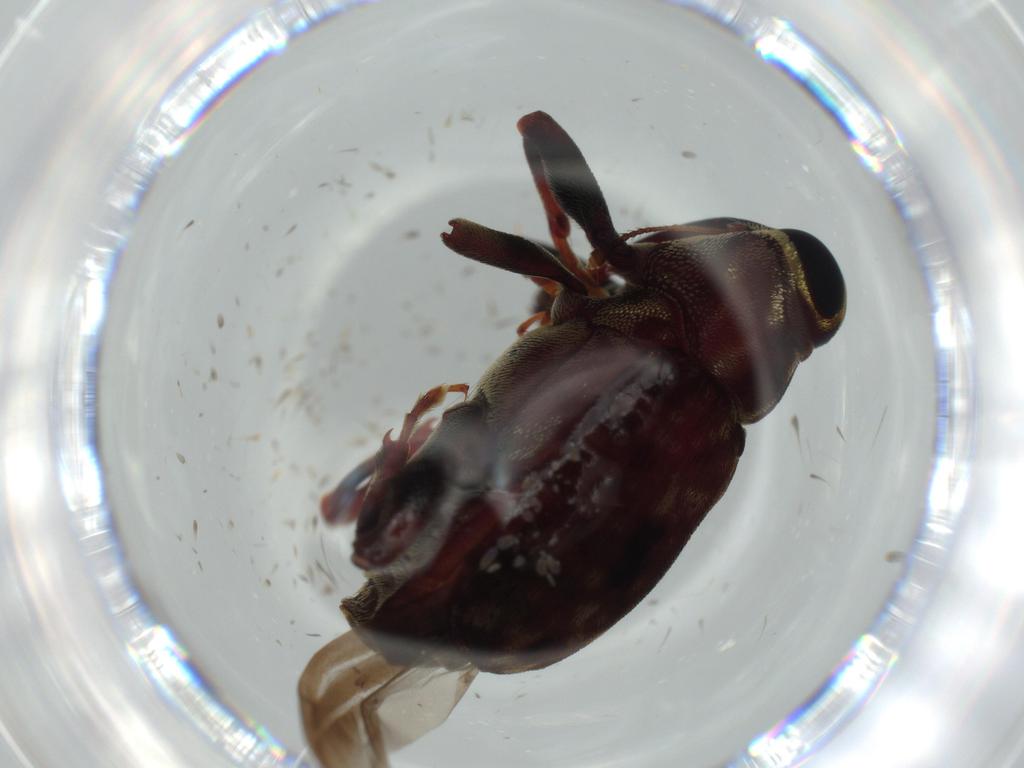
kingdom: Animalia
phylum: Arthropoda
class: Insecta
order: Coleoptera
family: Curculionidae
